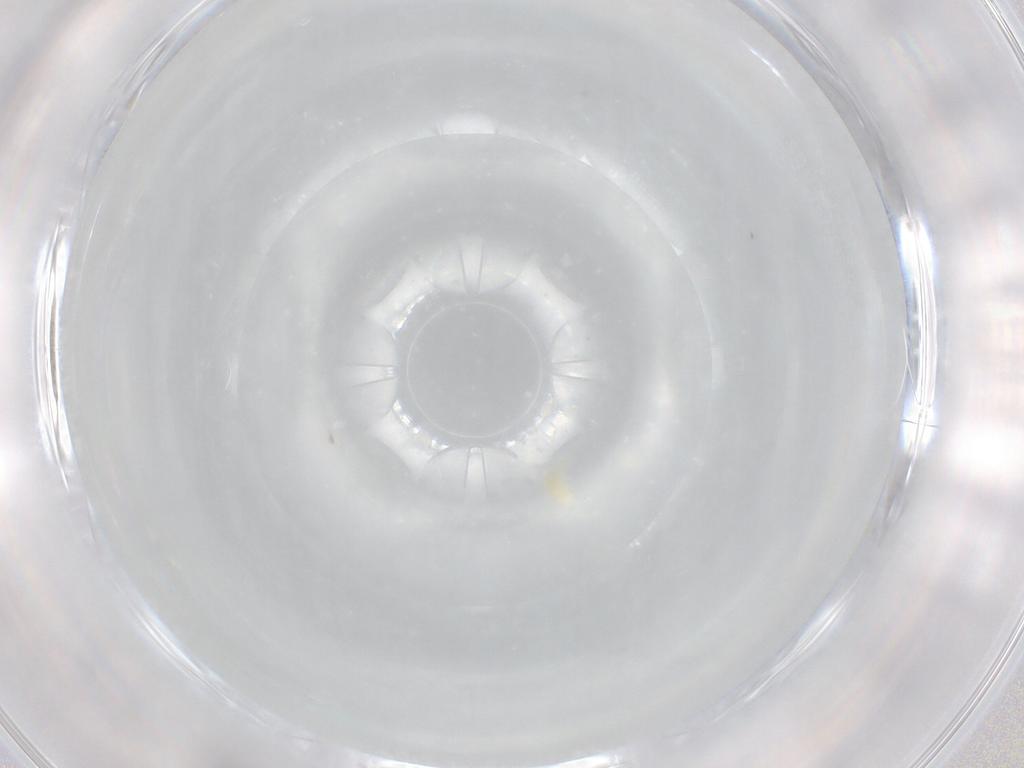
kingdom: Animalia
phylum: Arthropoda
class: Arachnida
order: Trombidiformes
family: Eupodidae
